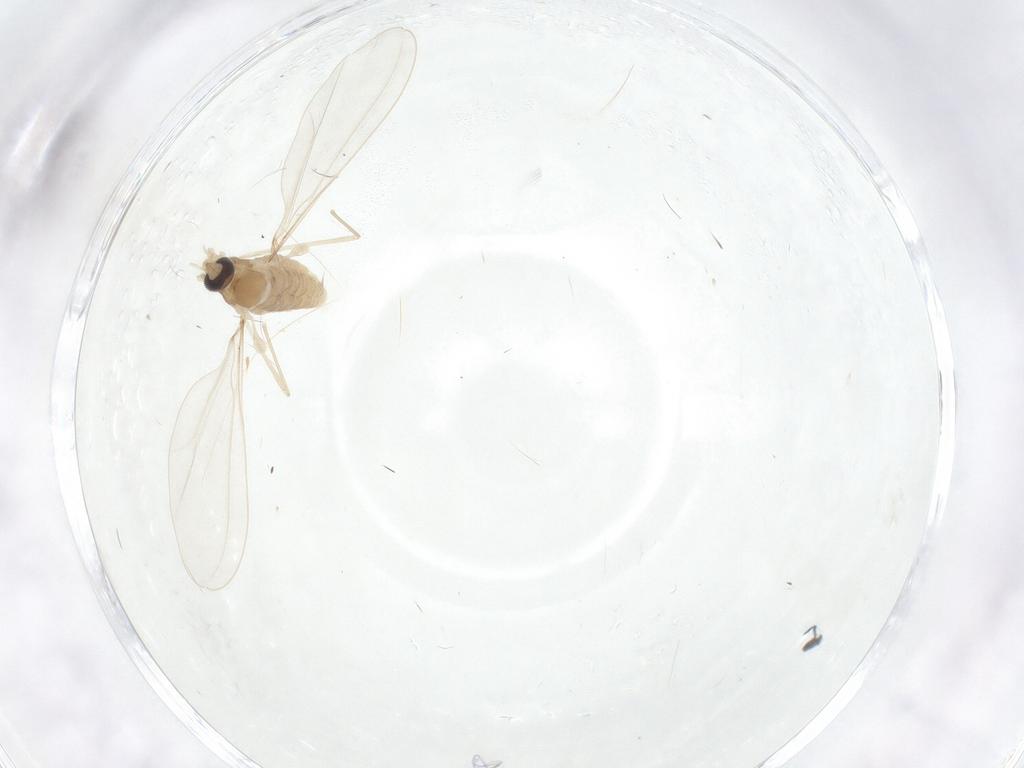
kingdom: Animalia
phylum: Arthropoda
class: Insecta
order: Diptera
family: Cecidomyiidae
